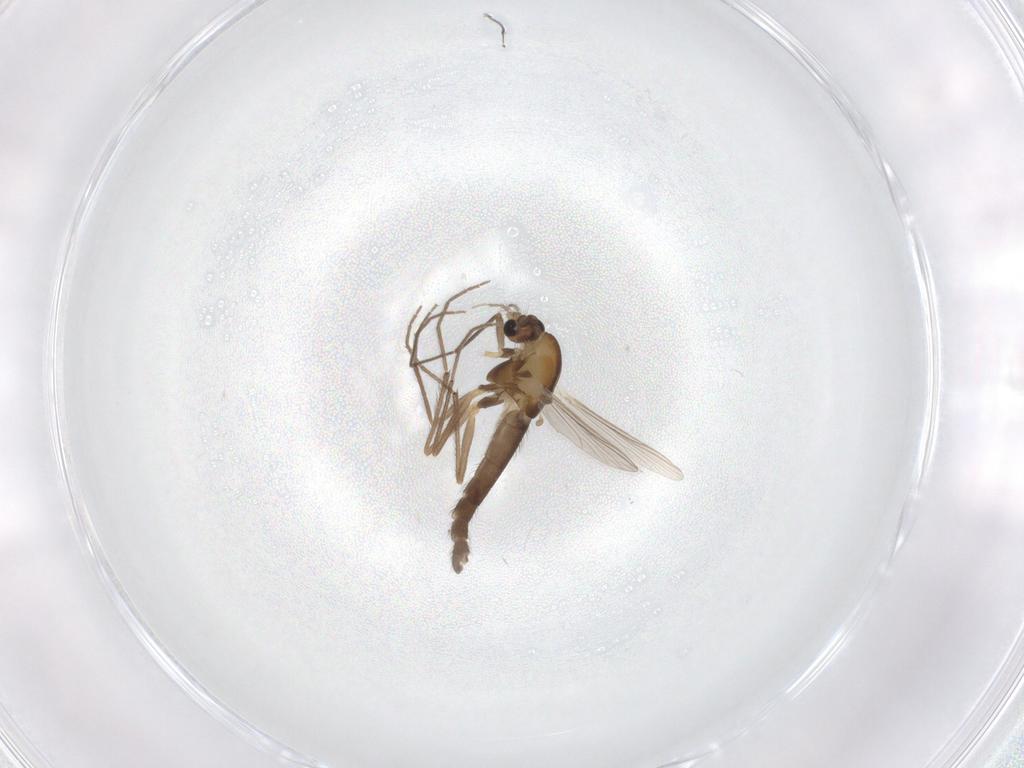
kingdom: Animalia
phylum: Arthropoda
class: Insecta
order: Diptera
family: Chironomidae
